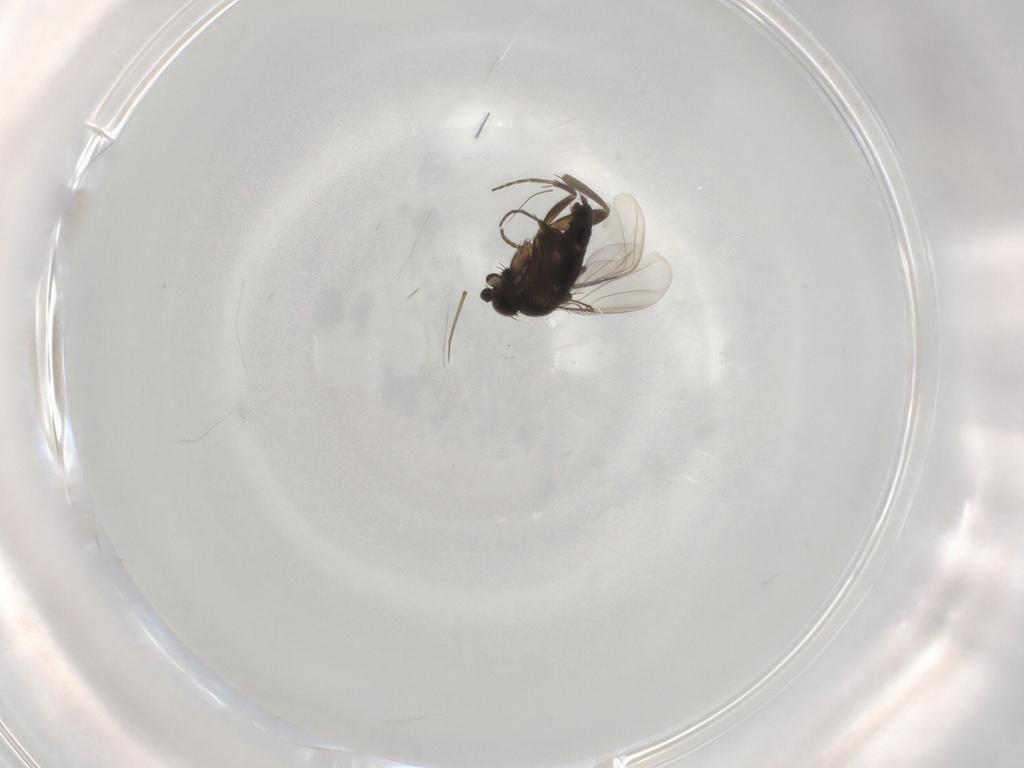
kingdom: Animalia
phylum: Arthropoda
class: Insecta
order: Diptera
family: Phoridae
